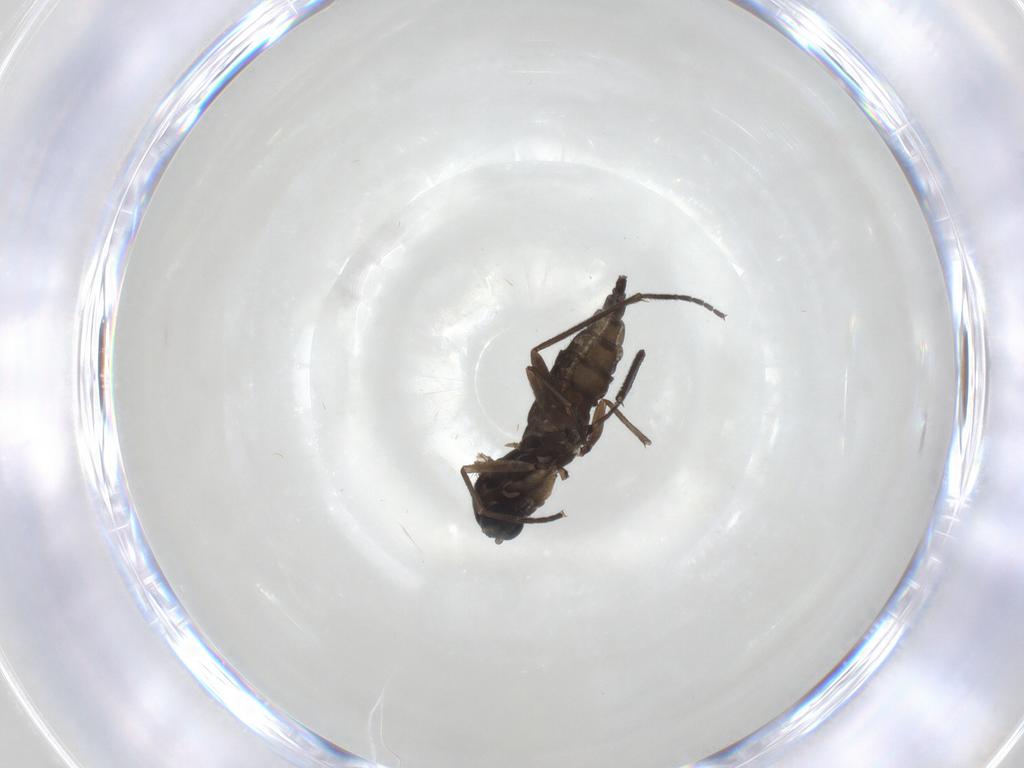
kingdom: Animalia
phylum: Arthropoda
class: Insecta
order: Diptera
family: Sciaridae
